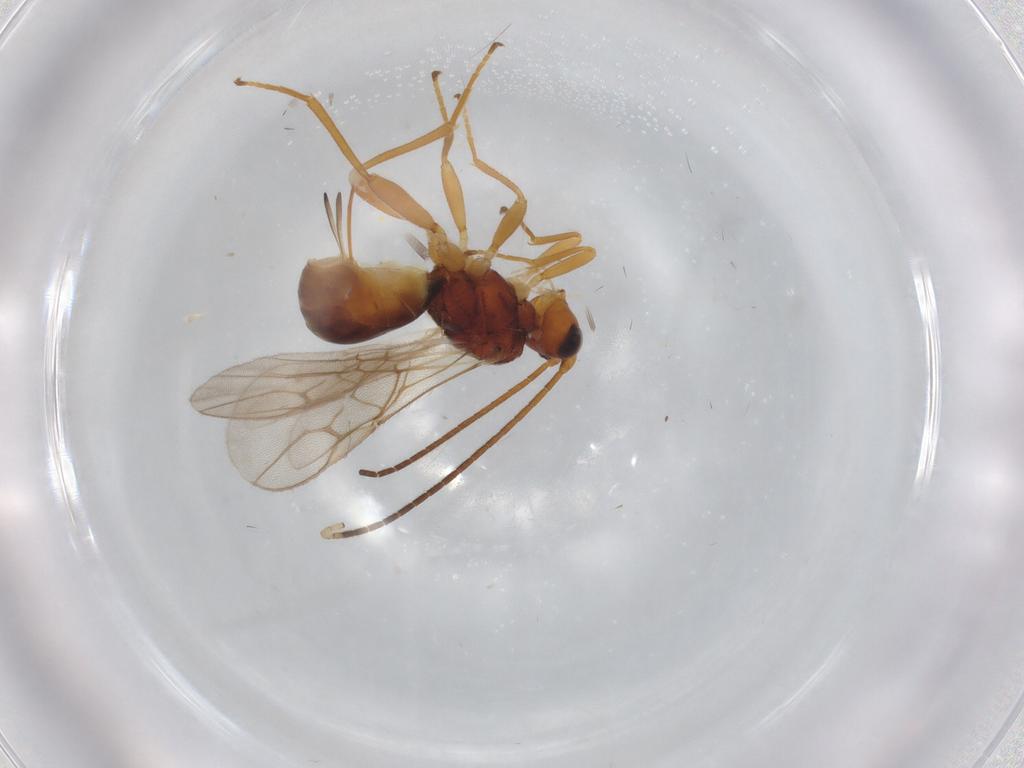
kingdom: Animalia
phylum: Arthropoda
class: Insecta
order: Hymenoptera
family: Braconidae
